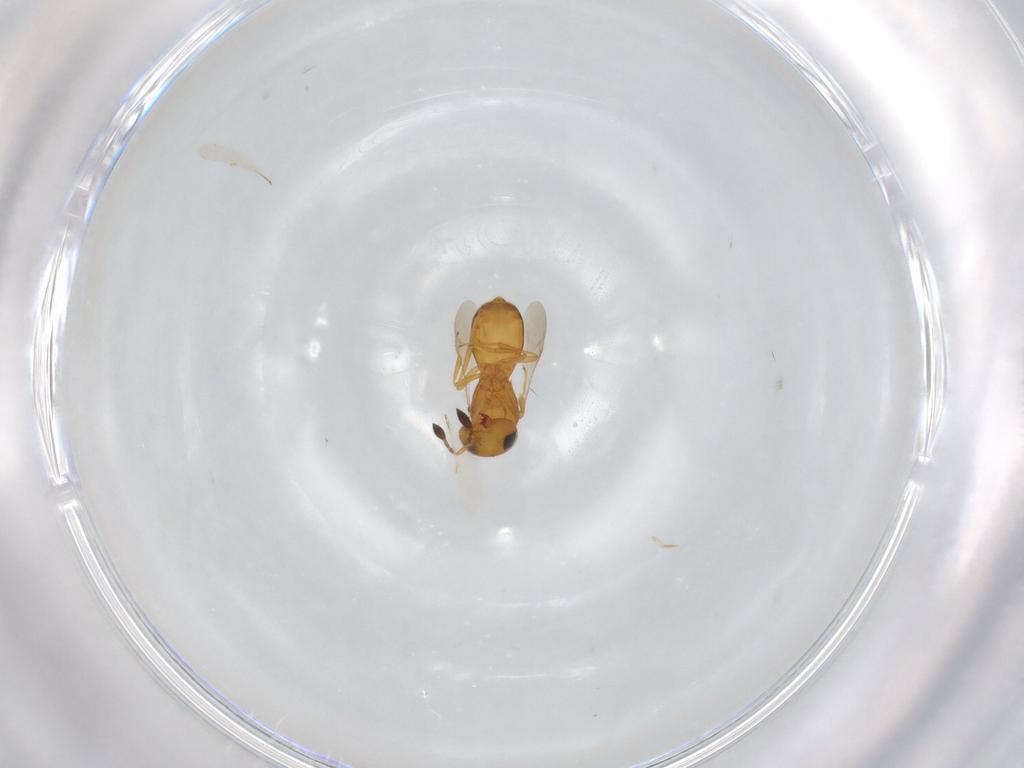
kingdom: Animalia
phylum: Arthropoda
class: Insecta
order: Hymenoptera
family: Scelionidae
